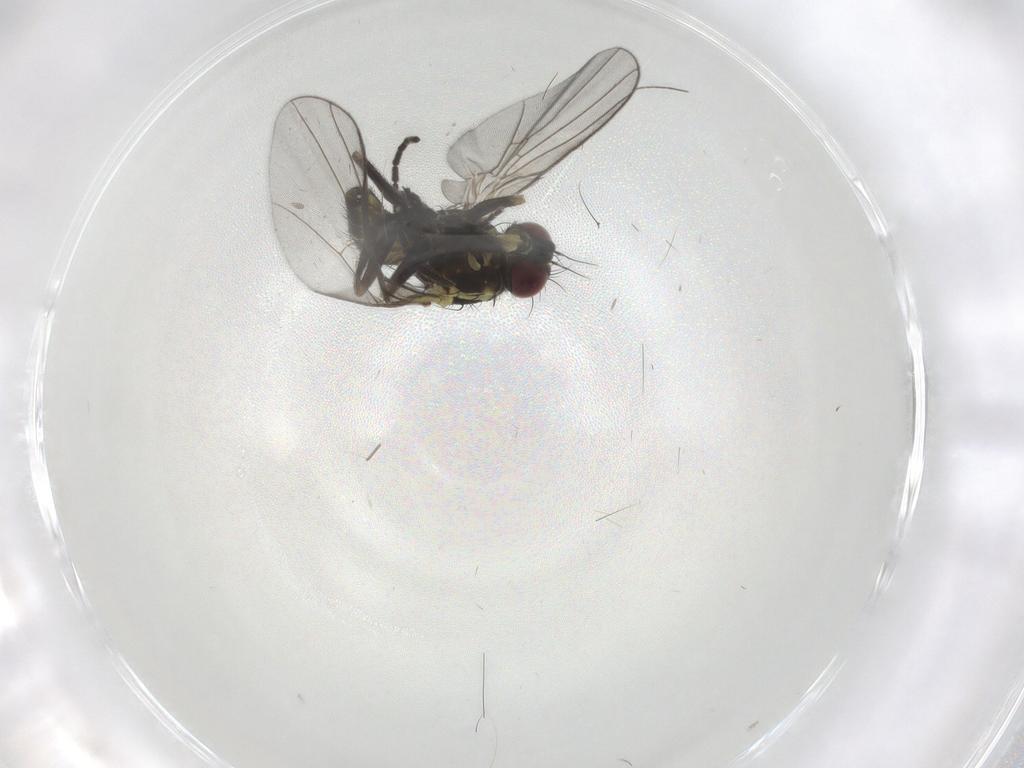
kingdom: Animalia
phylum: Arthropoda
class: Insecta
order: Diptera
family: Agromyzidae
